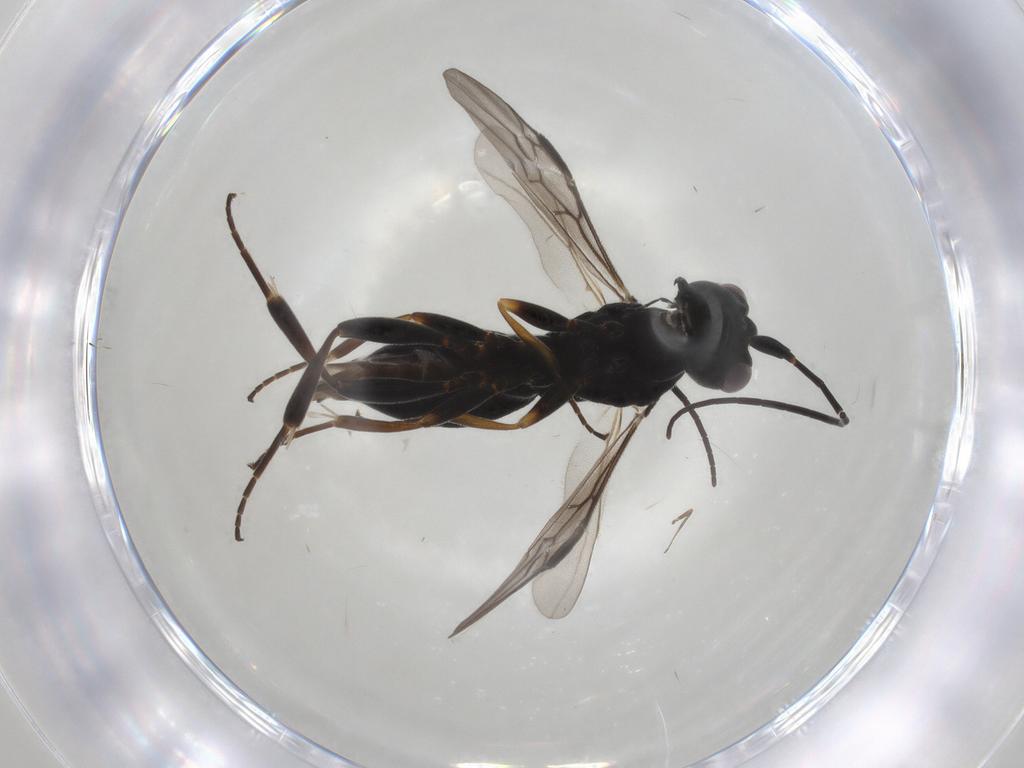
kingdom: Animalia
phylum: Arthropoda
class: Insecta
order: Hymenoptera
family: Braconidae
